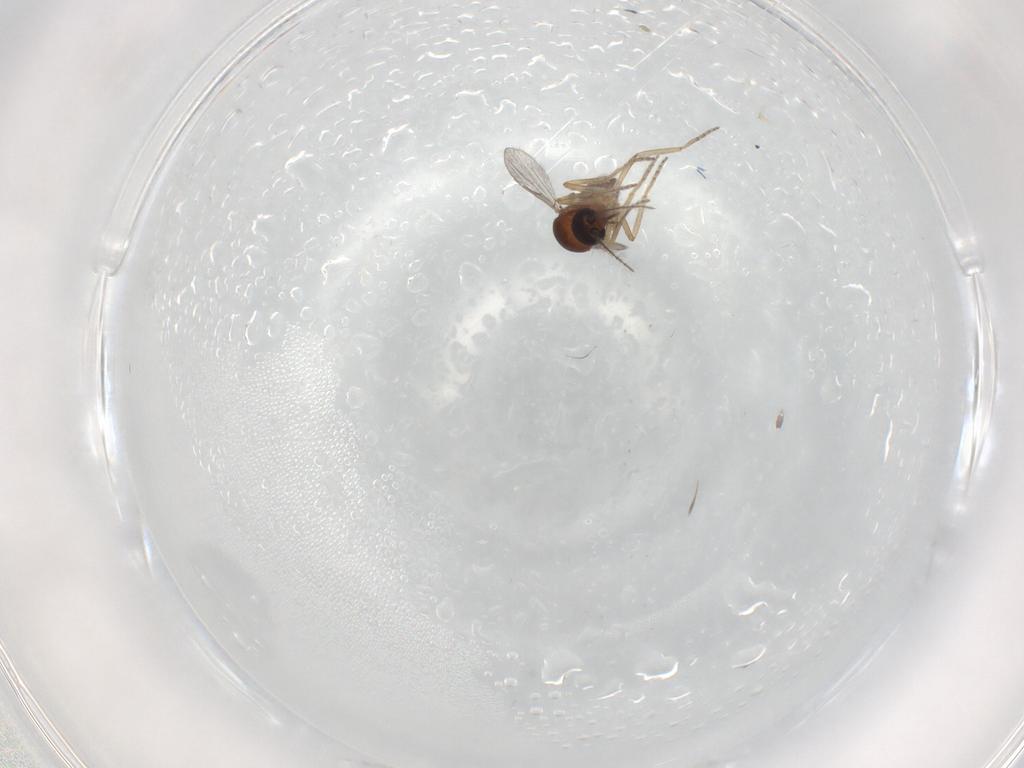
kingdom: Animalia
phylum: Arthropoda
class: Insecta
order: Diptera
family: Ceratopogonidae
